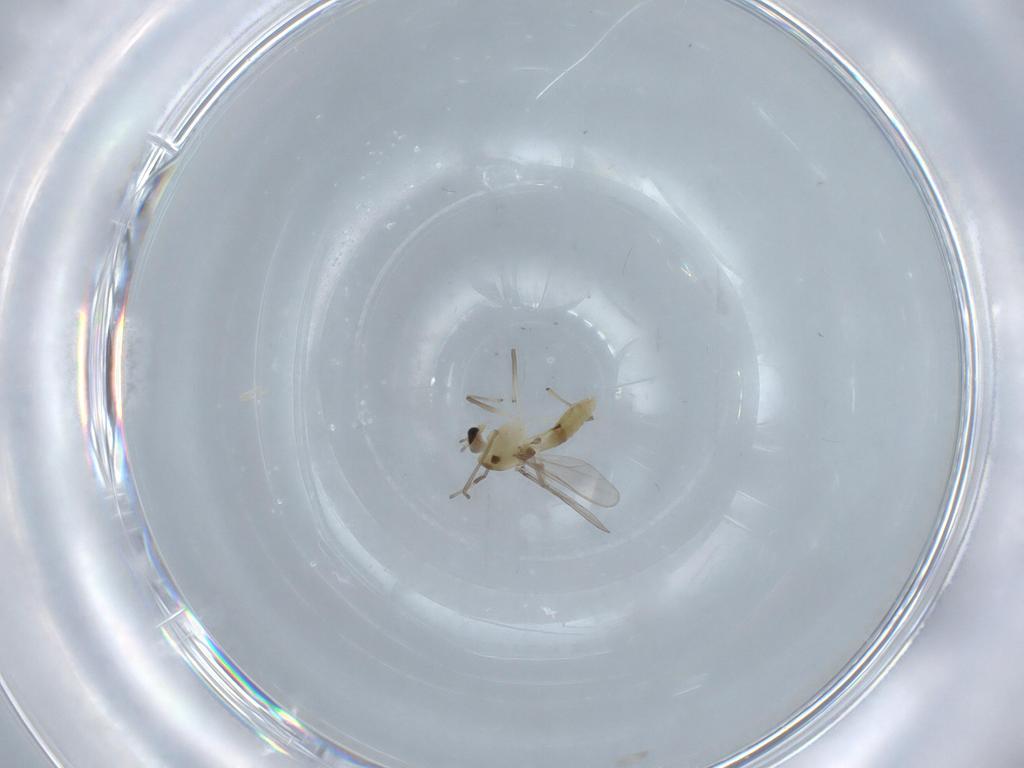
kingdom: Animalia
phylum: Arthropoda
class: Insecta
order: Diptera
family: Chironomidae
